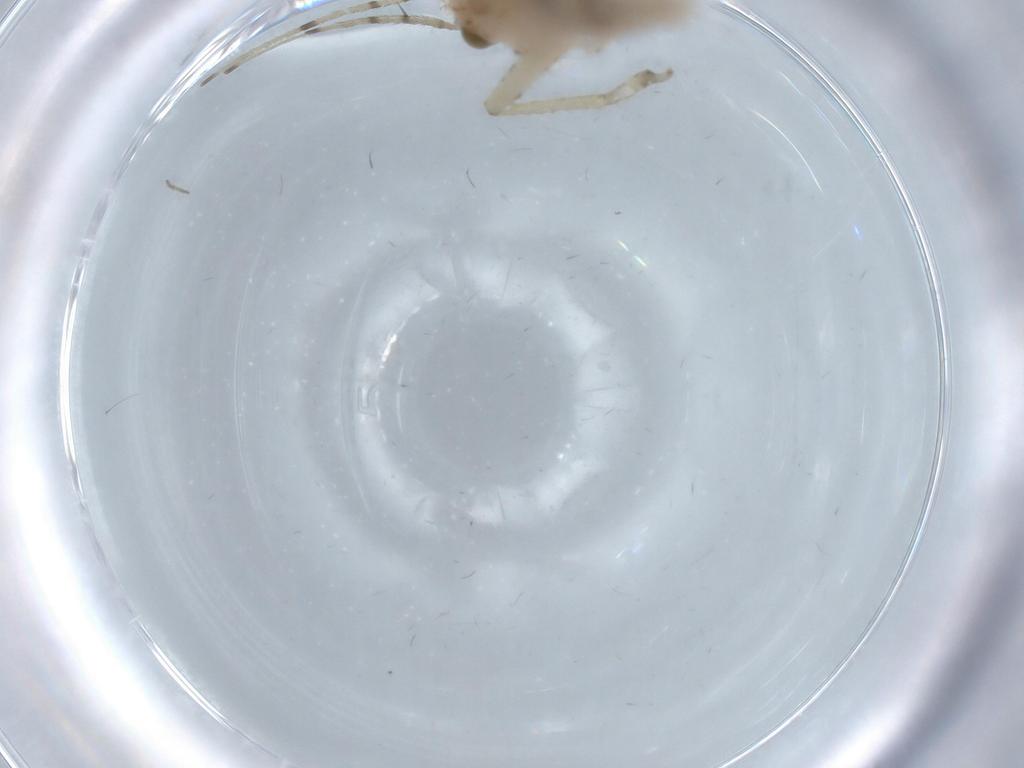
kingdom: Animalia
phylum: Arthropoda
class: Insecta
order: Orthoptera
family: Trigonidiidae
